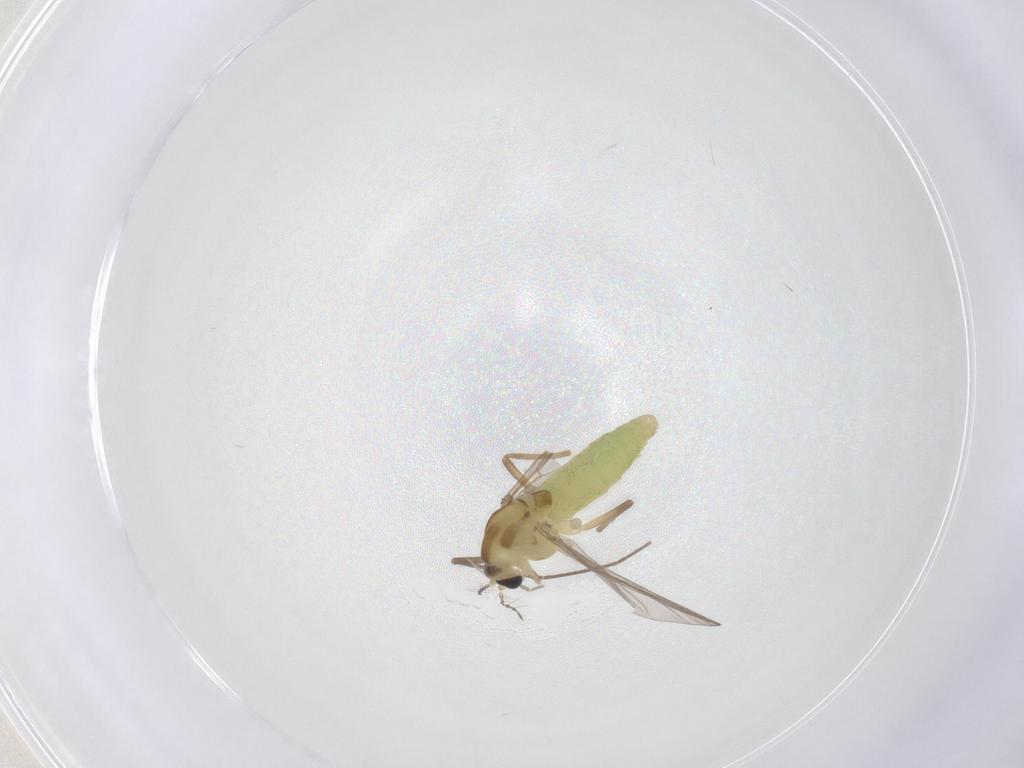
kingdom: Animalia
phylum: Arthropoda
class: Insecta
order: Diptera
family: Chironomidae
